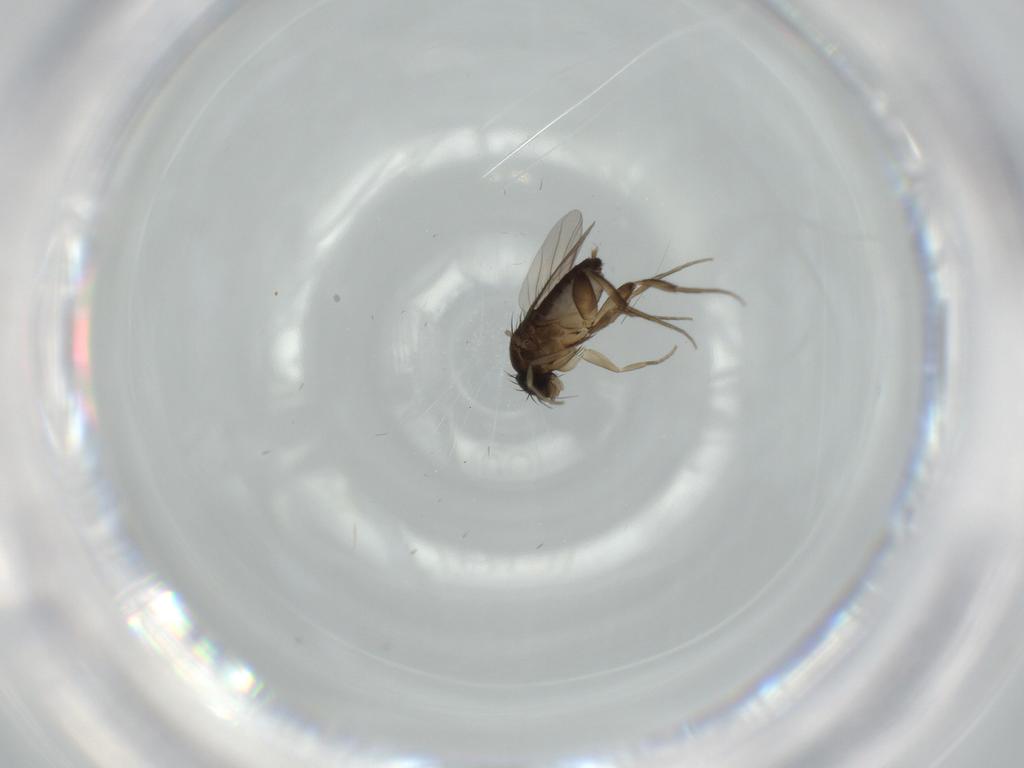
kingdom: Animalia
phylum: Arthropoda
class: Insecta
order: Diptera
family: Phoridae
